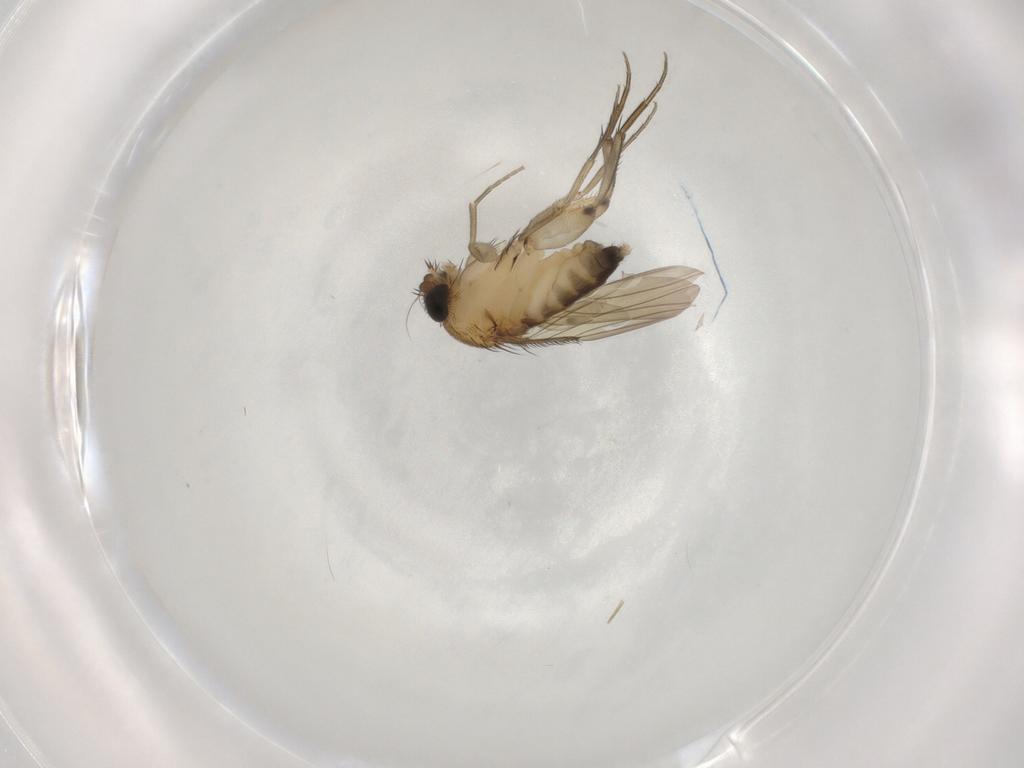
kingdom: Animalia
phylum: Arthropoda
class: Insecta
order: Diptera
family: Phoridae
